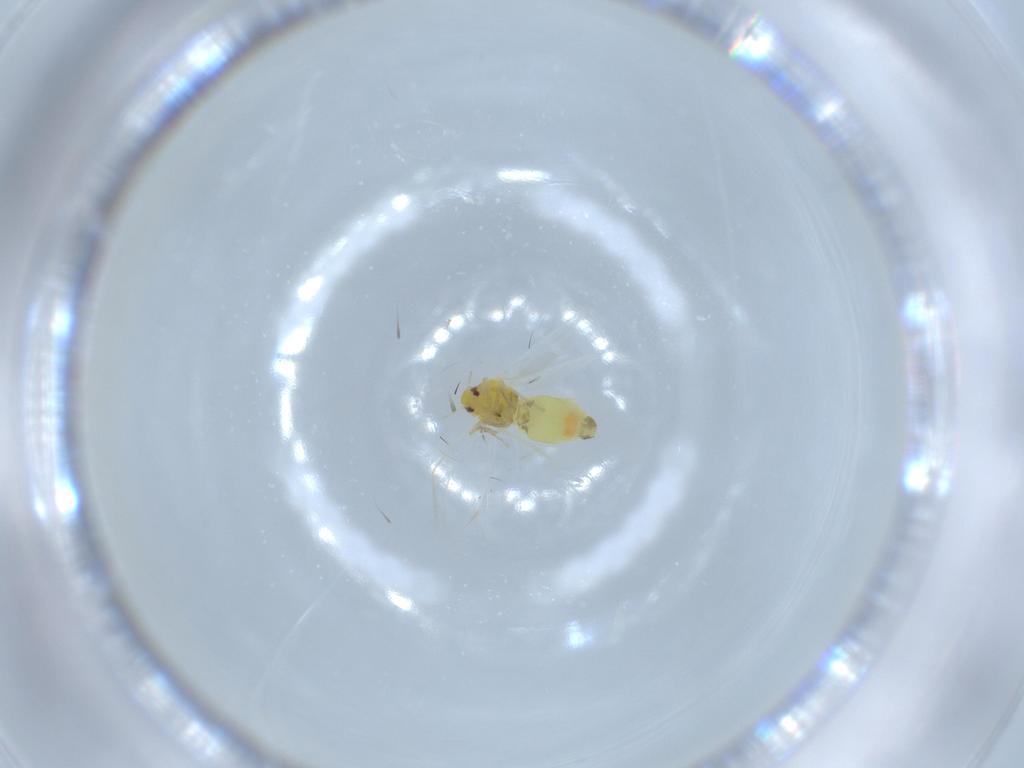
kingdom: Animalia
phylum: Arthropoda
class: Insecta
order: Hemiptera
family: Aleyrodidae
